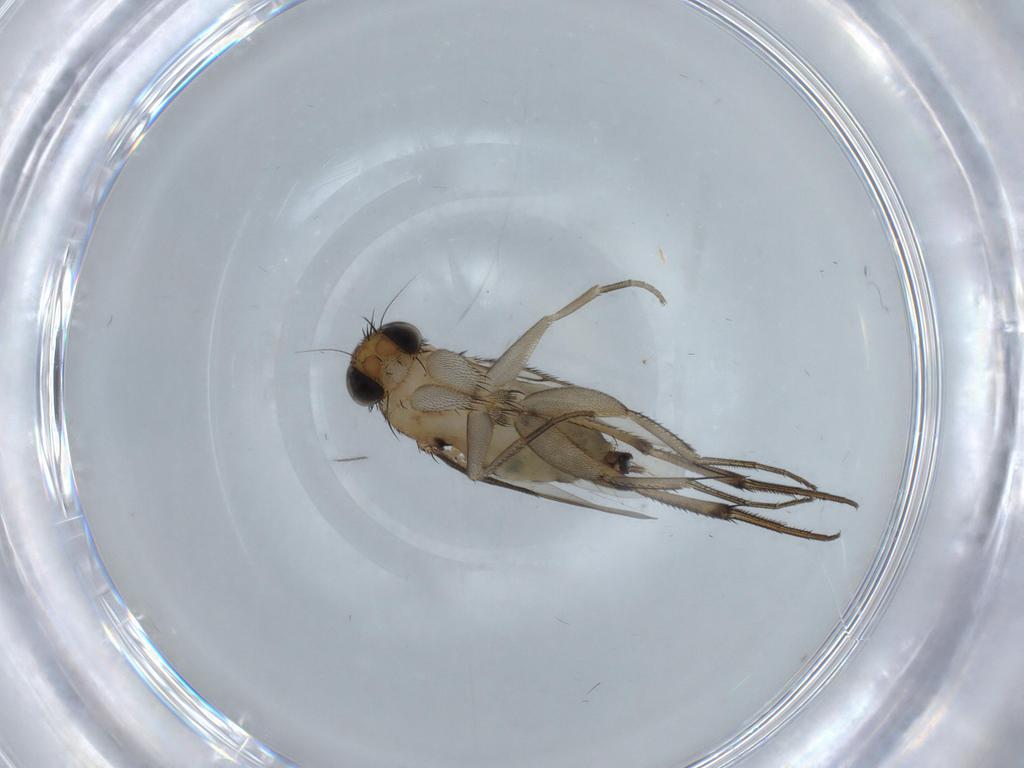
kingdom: Animalia
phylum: Arthropoda
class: Insecta
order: Diptera
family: Phoridae
